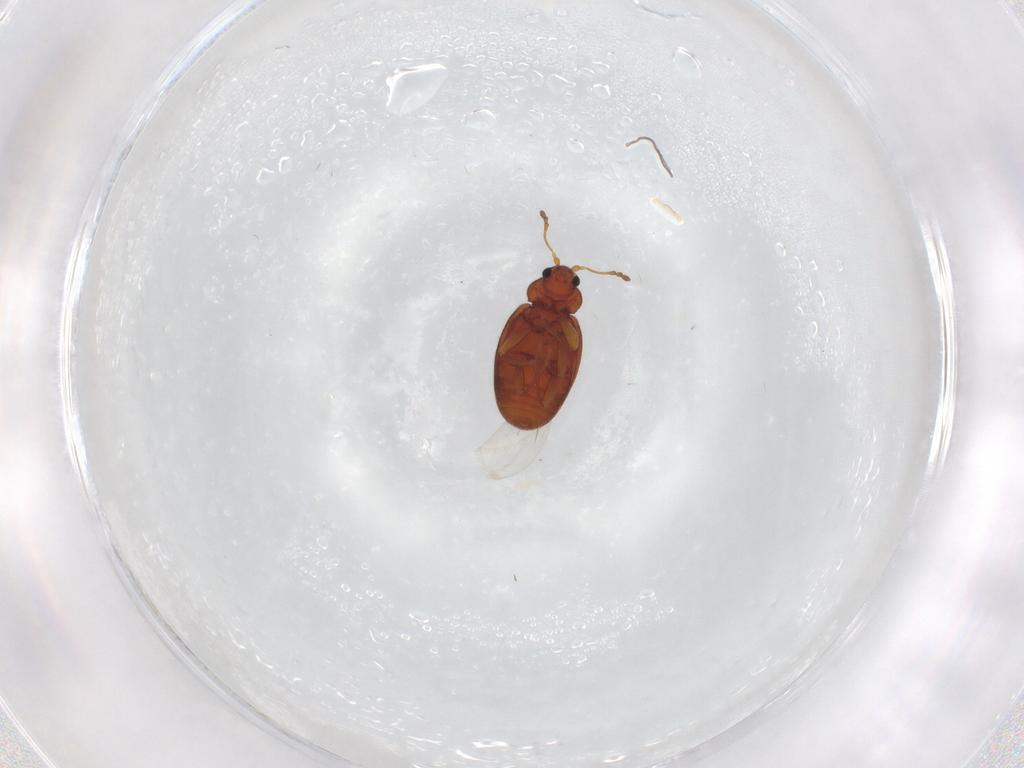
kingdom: Animalia
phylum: Arthropoda
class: Insecta
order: Coleoptera
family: Latridiidae
